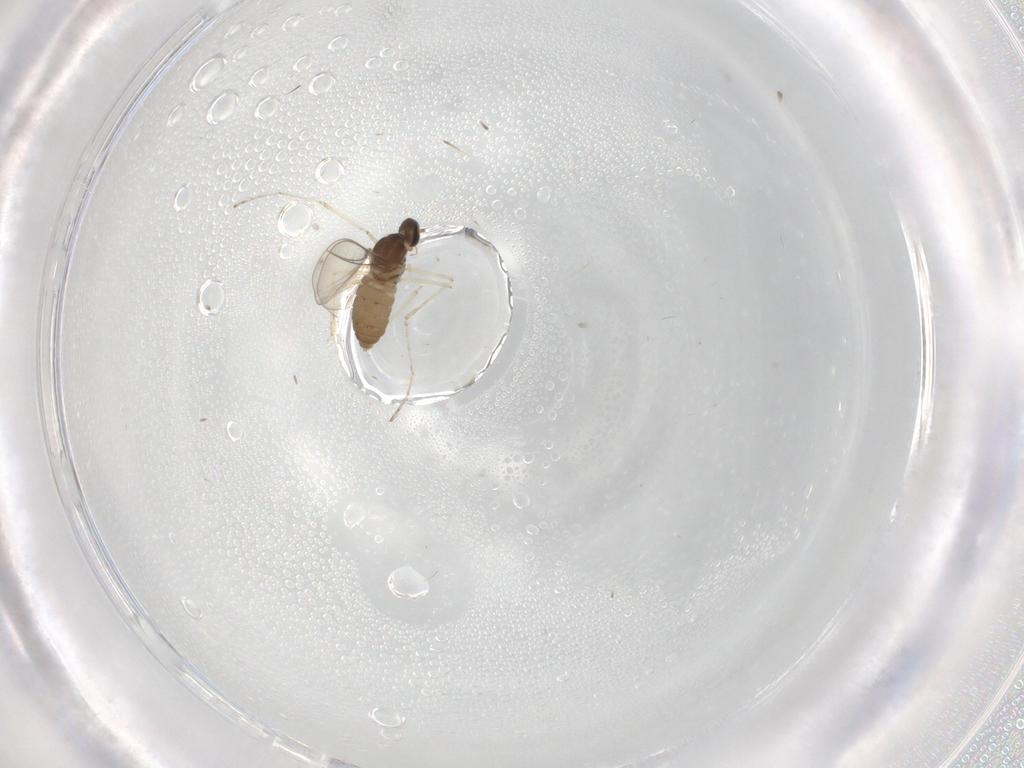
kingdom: Animalia
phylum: Arthropoda
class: Insecta
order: Diptera
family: Cecidomyiidae
